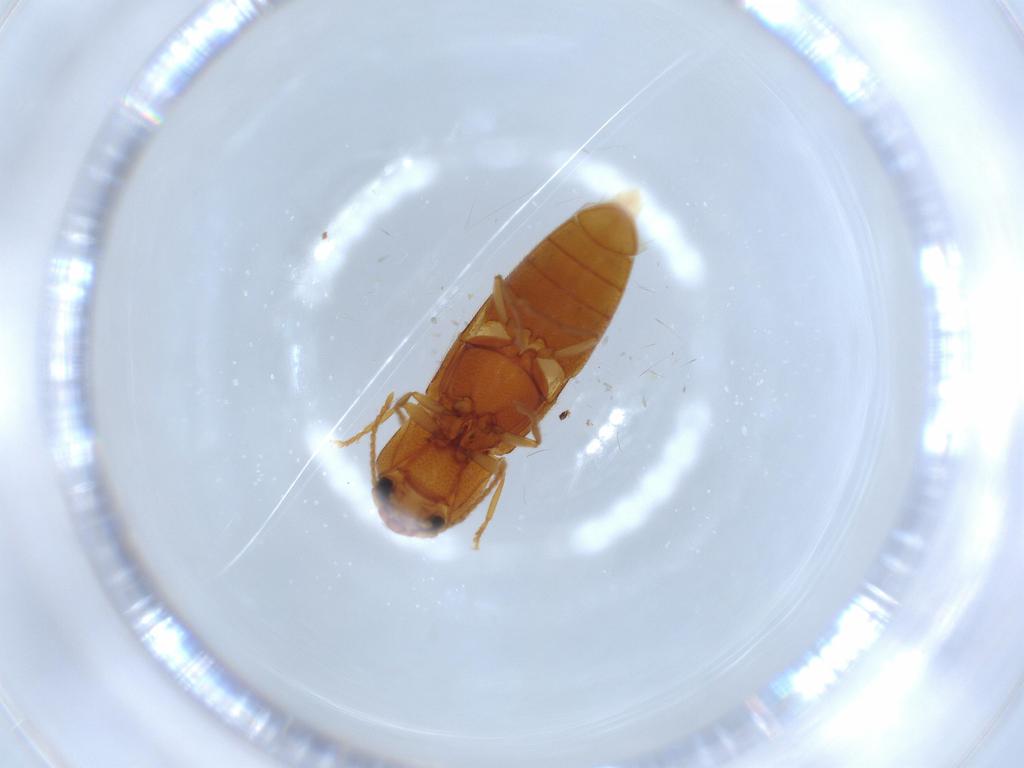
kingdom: Animalia
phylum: Arthropoda
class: Insecta
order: Coleoptera
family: Elateridae
